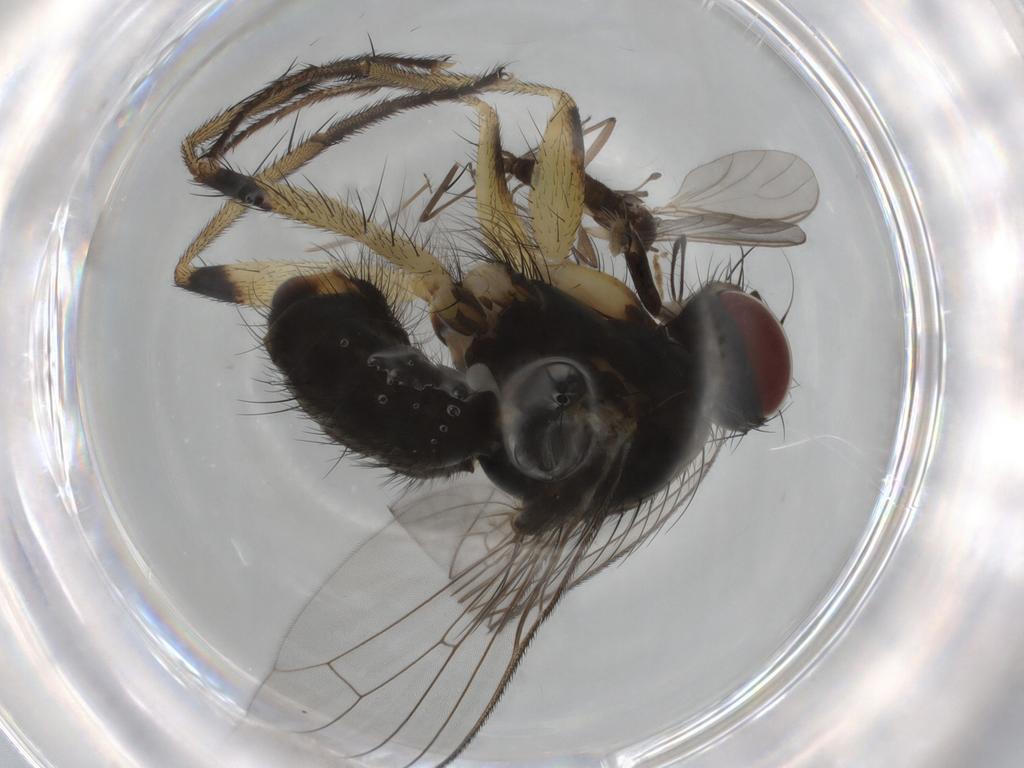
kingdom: Animalia
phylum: Arthropoda
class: Insecta
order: Diptera
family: Muscidae
